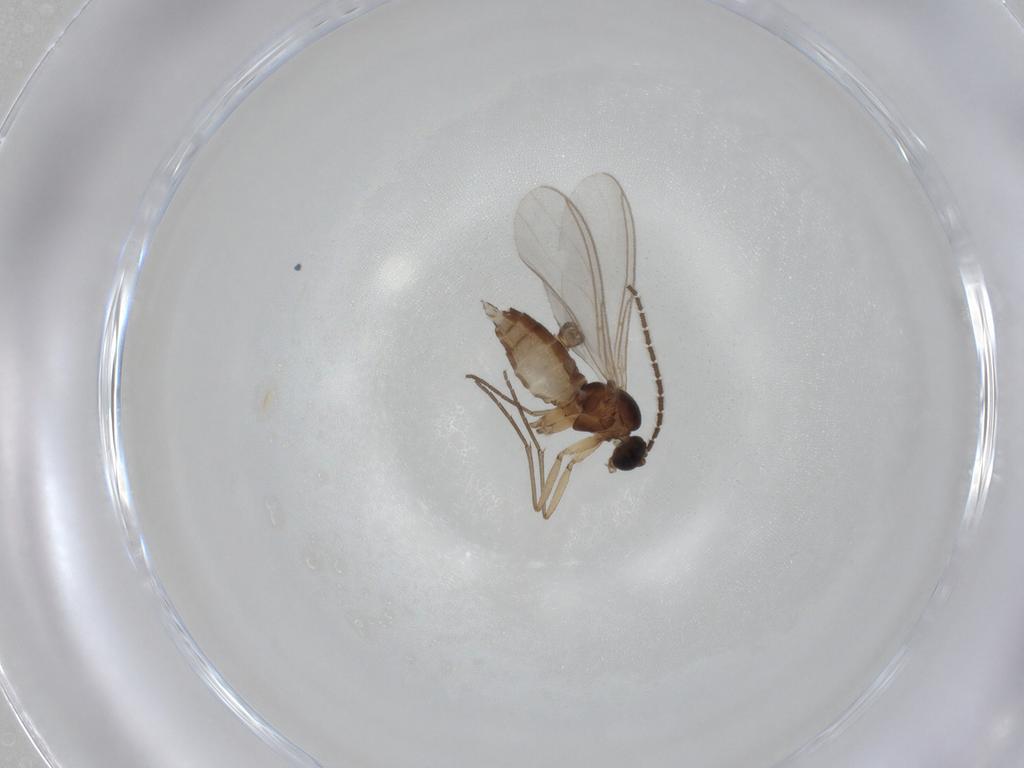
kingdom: Animalia
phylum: Arthropoda
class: Insecta
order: Diptera
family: Sciaridae
